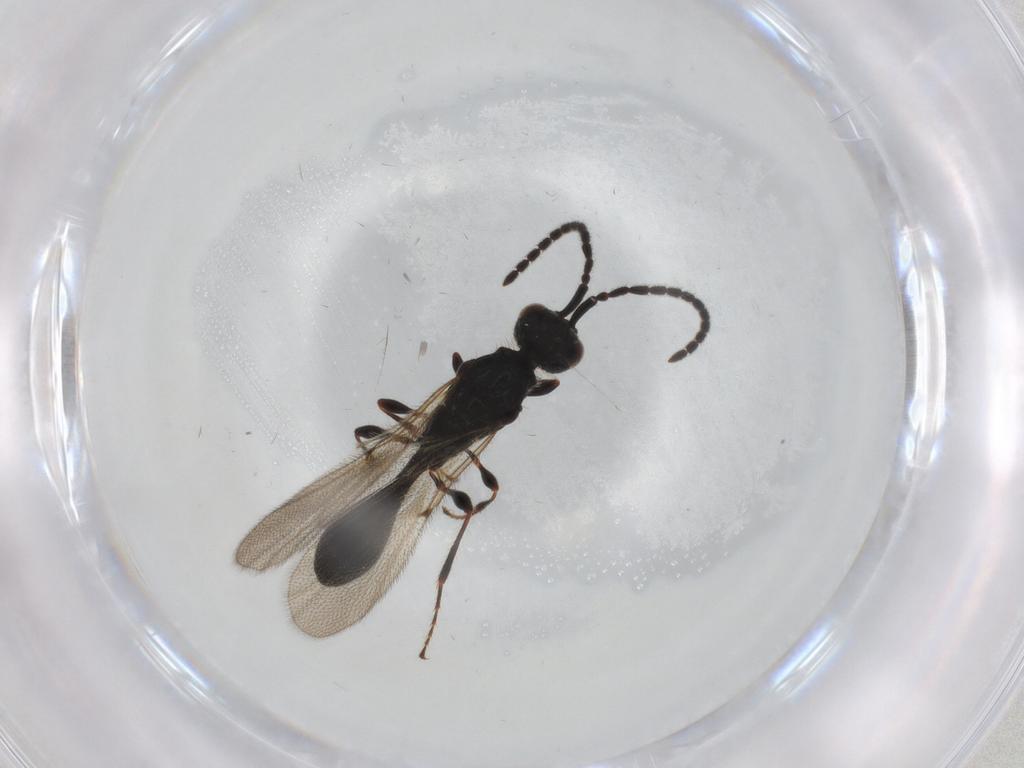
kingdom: Animalia
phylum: Arthropoda
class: Insecta
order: Hymenoptera
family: Diapriidae
